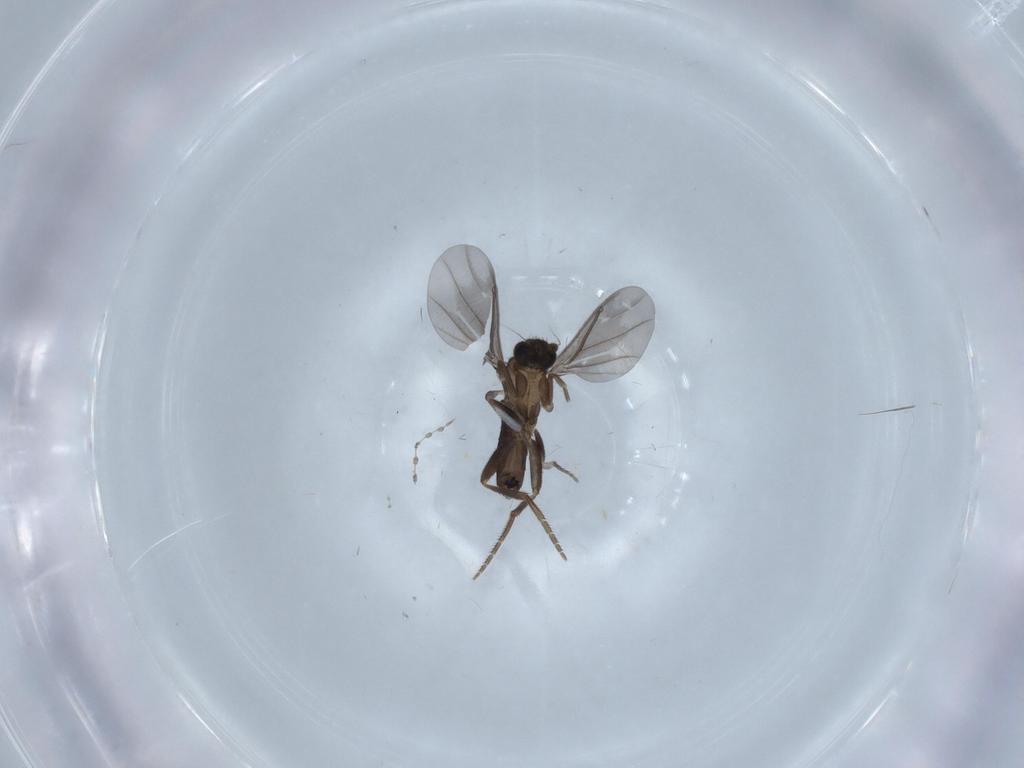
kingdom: Animalia
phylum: Arthropoda
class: Insecta
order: Diptera
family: Phoridae
